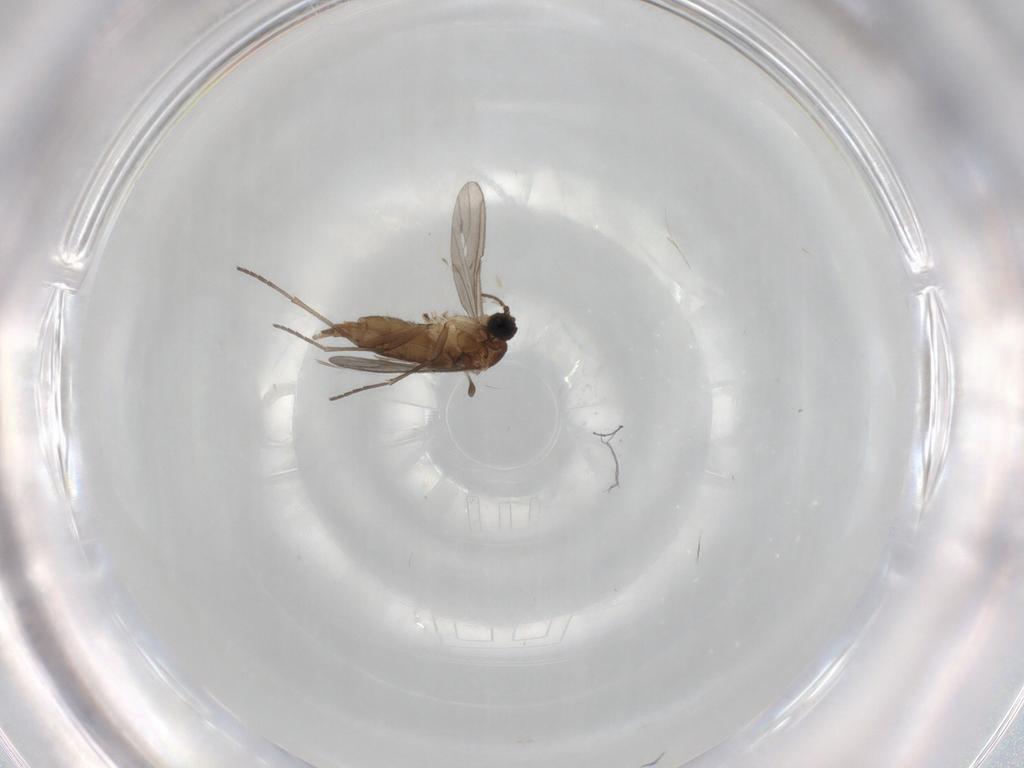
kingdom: Animalia
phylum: Arthropoda
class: Insecta
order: Diptera
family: Sciaridae
